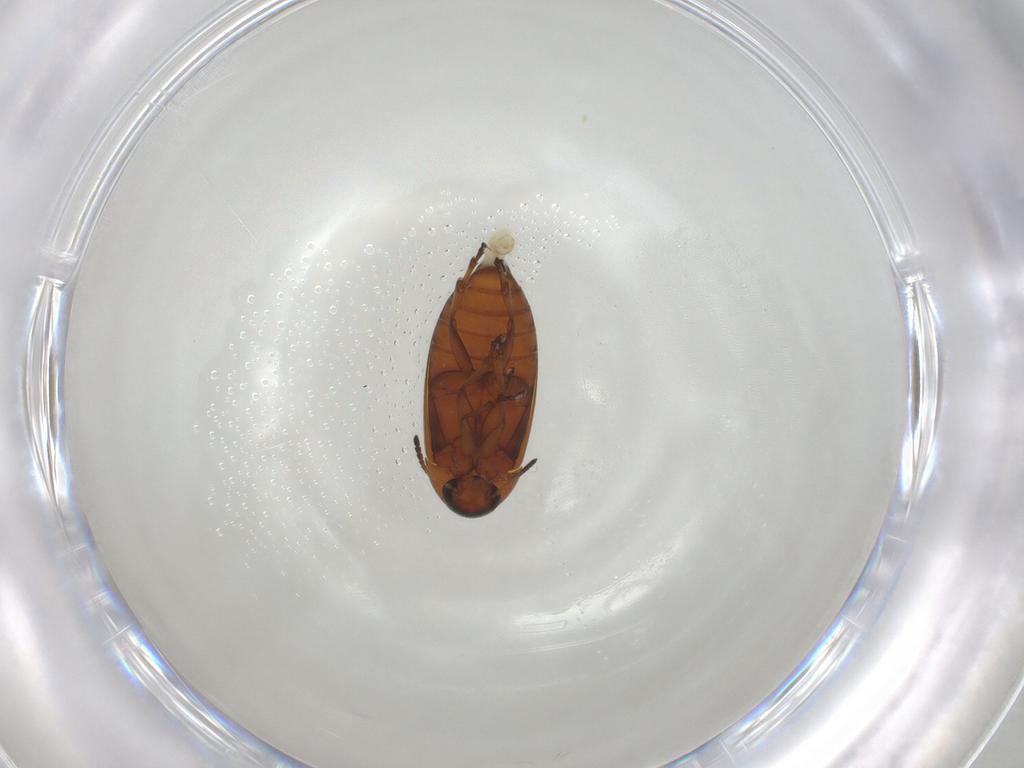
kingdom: Animalia
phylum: Arthropoda
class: Insecta
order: Coleoptera
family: Scraptiidae
